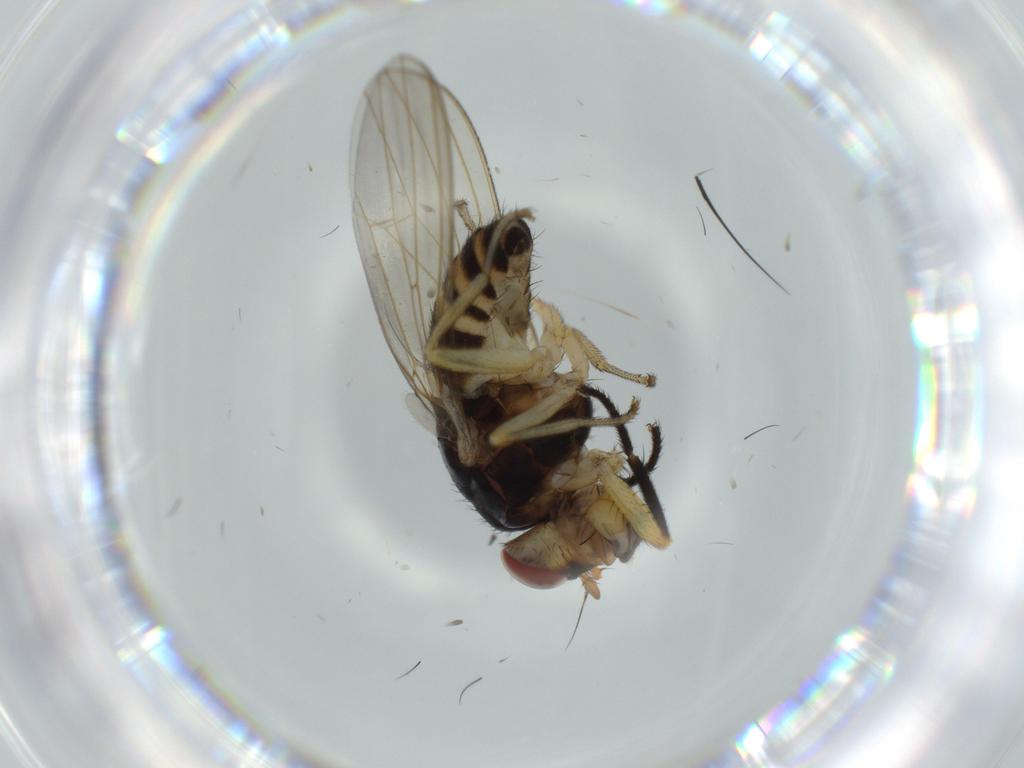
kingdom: Animalia
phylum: Arthropoda
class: Insecta
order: Diptera
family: Lauxaniidae
